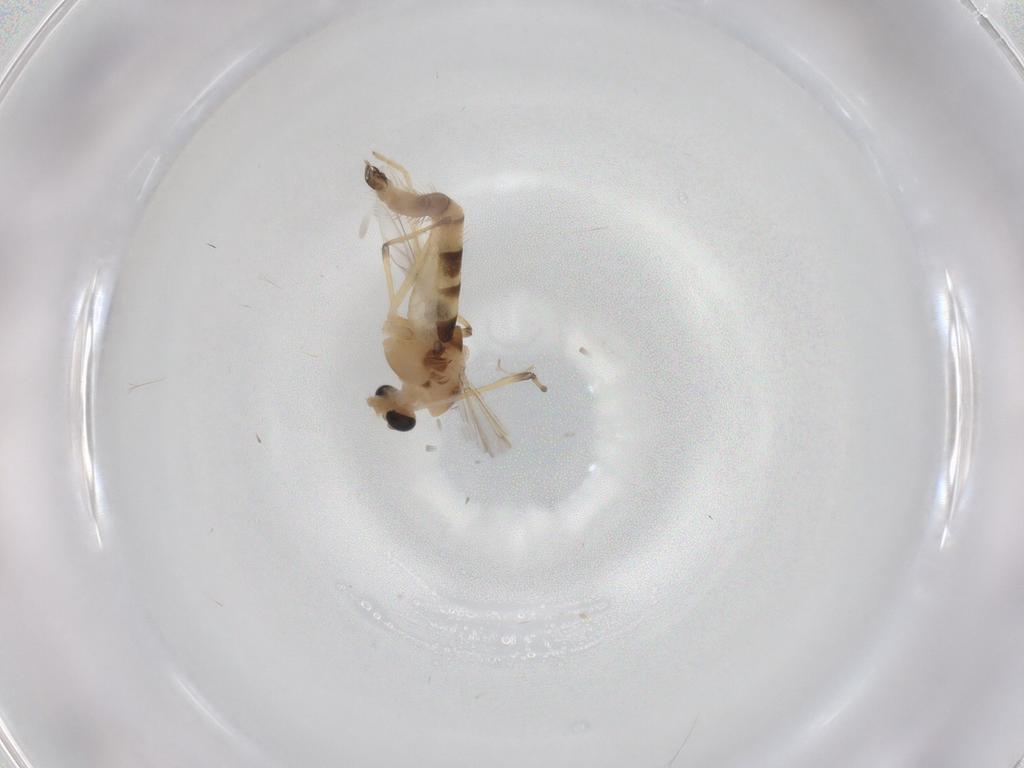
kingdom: Animalia
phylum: Arthropoda
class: Insecta
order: Diptera
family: Chironomidae
